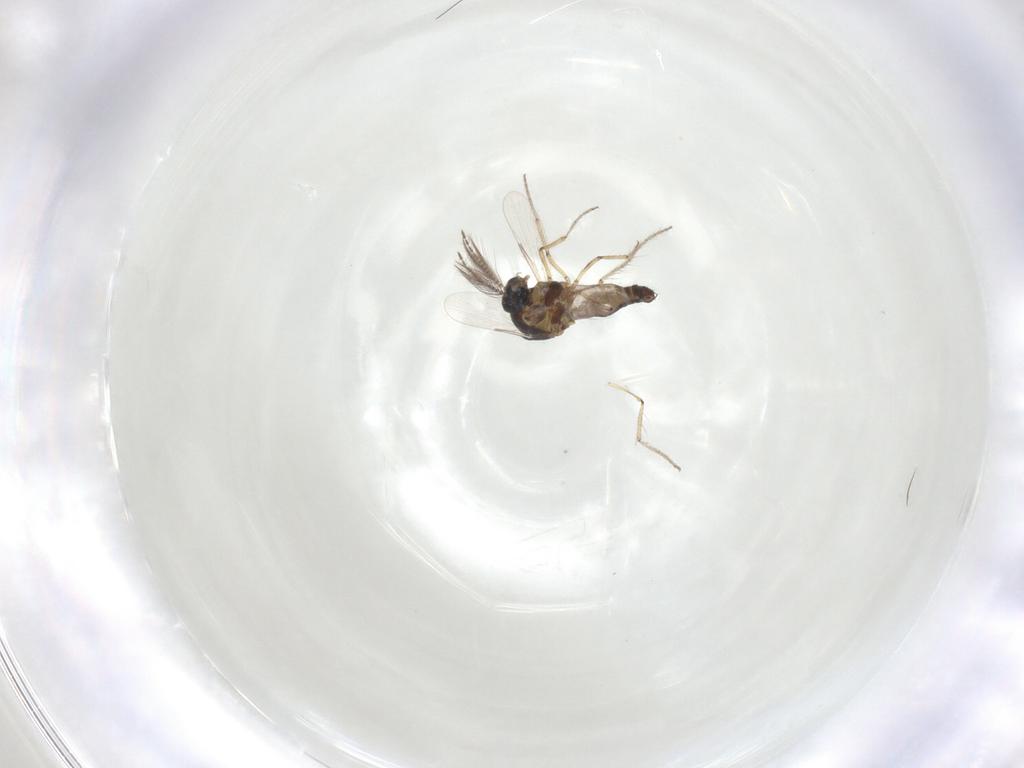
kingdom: Animalia
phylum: Arthropoda
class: Insecta
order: Diptera
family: Ceratopogonidae
